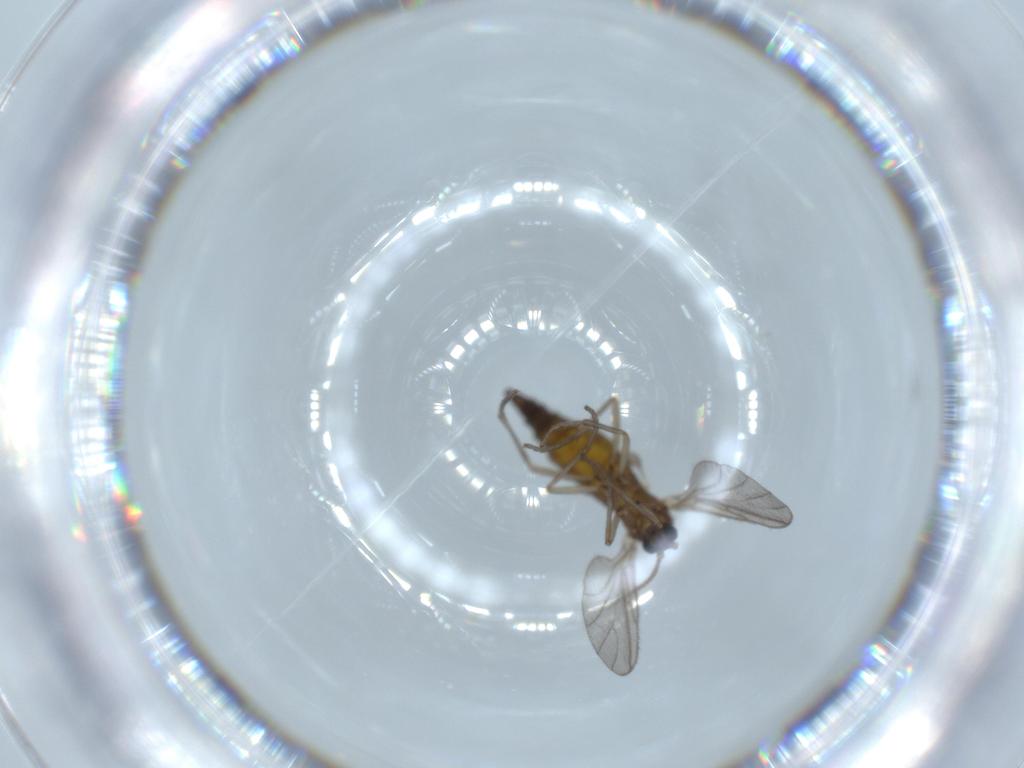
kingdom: Animalia
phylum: Arthropoda
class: Insecta
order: Diptera
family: Sciaridae
